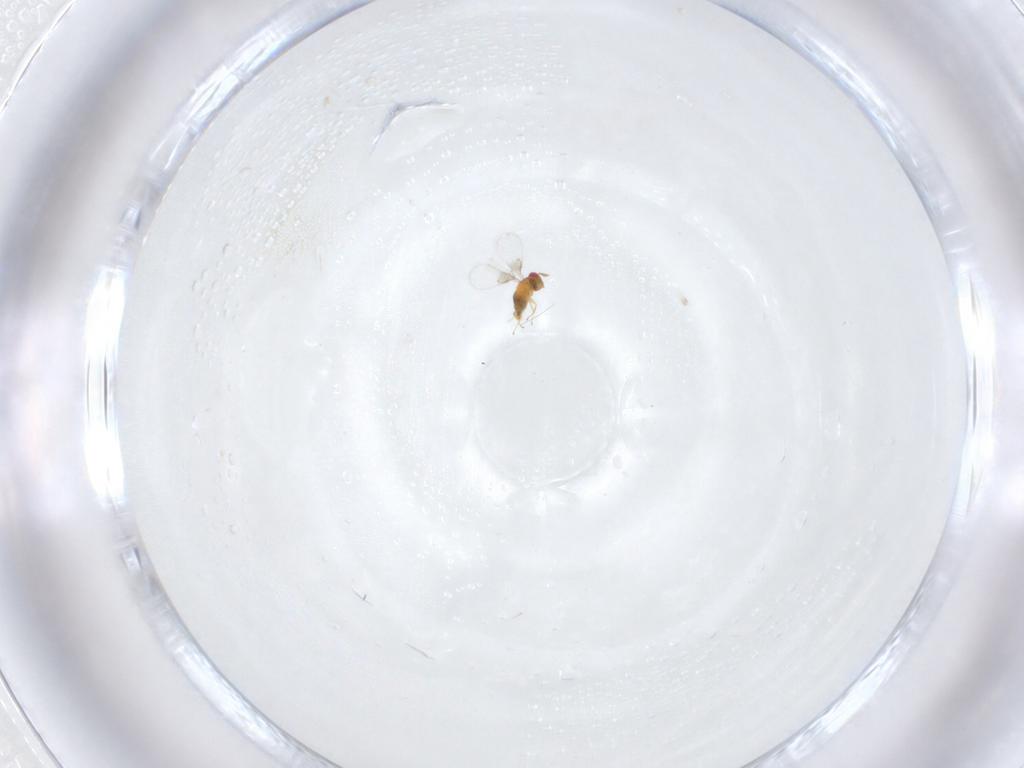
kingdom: Animalia
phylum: Arthropoda
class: Insecta
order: Hymenoptera
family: Trichogrammatidae
